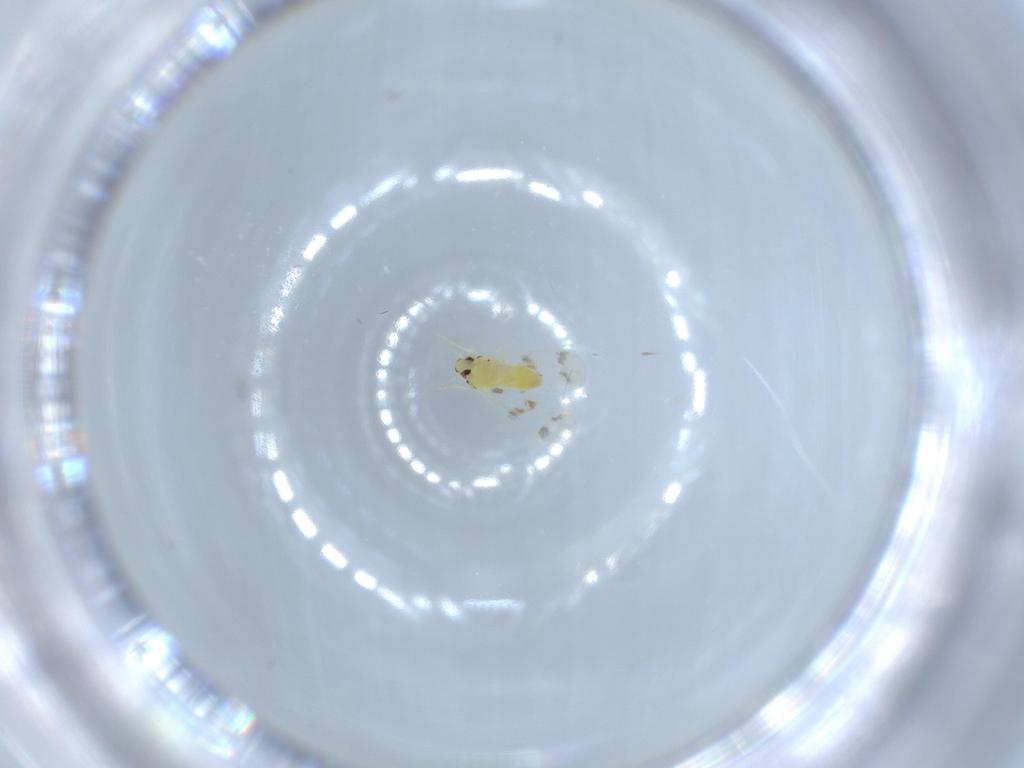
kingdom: Animalia
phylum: Arthropoda
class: Insecta
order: Hemiptera
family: Aleyrodidae
